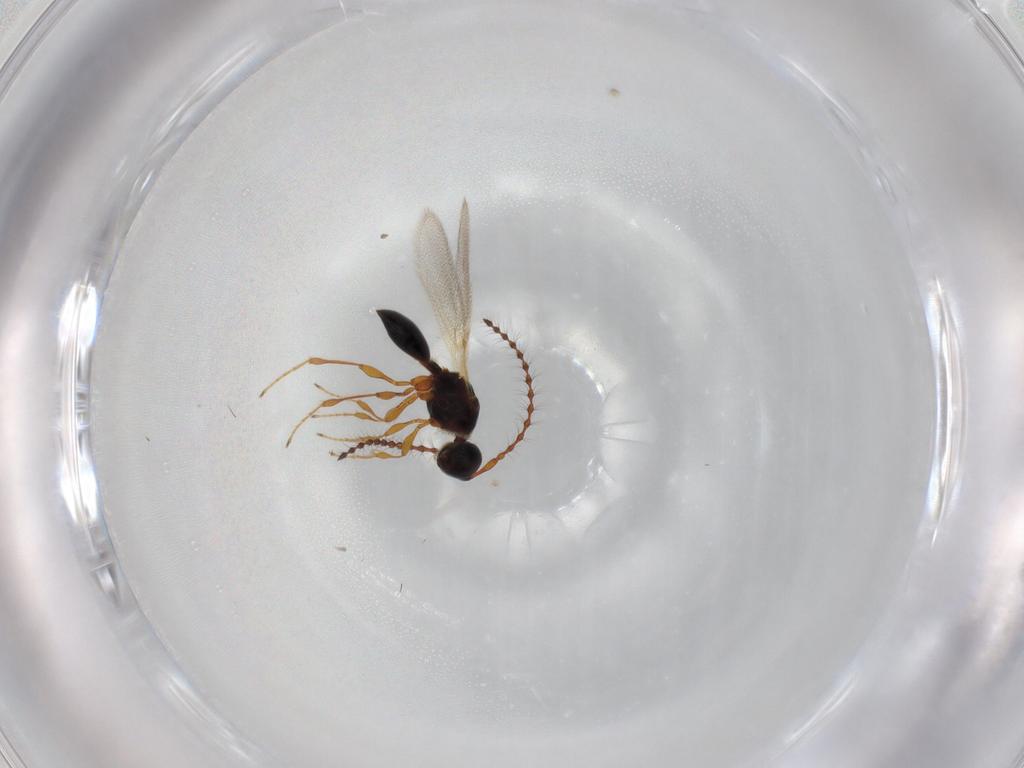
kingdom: Animalia
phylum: Arthropoda
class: Insecta
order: Hymenoptera
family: Diapriidae
